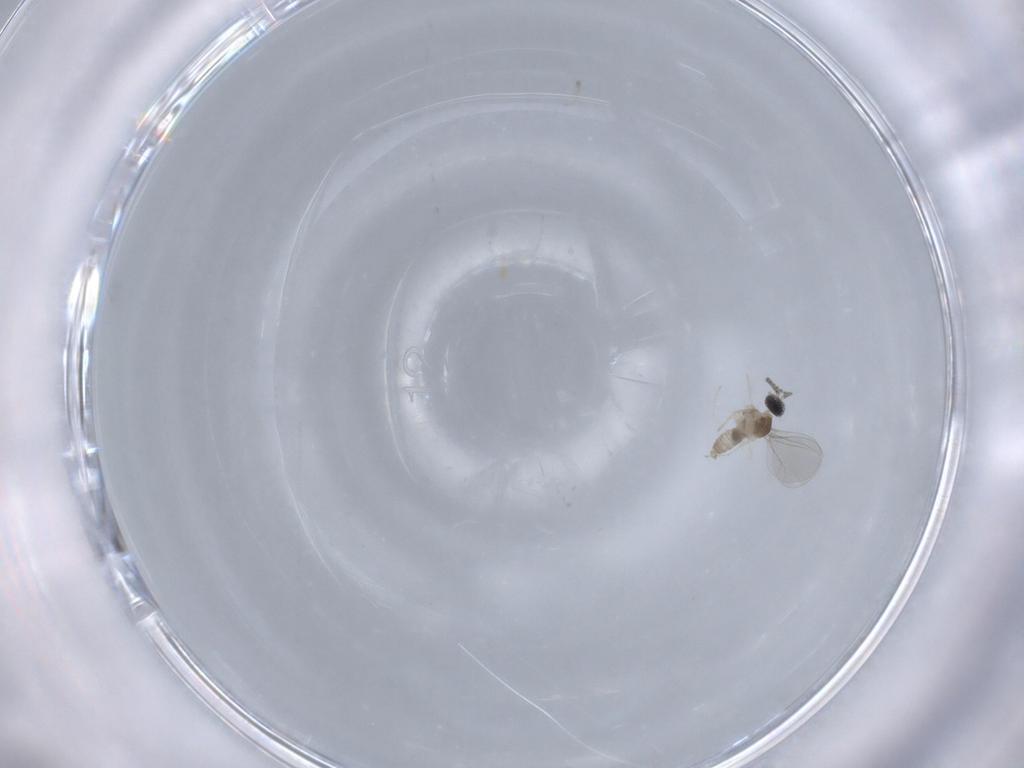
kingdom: Animalia
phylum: Arthropoda
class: Insecta
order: Diptera
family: Asilidae
